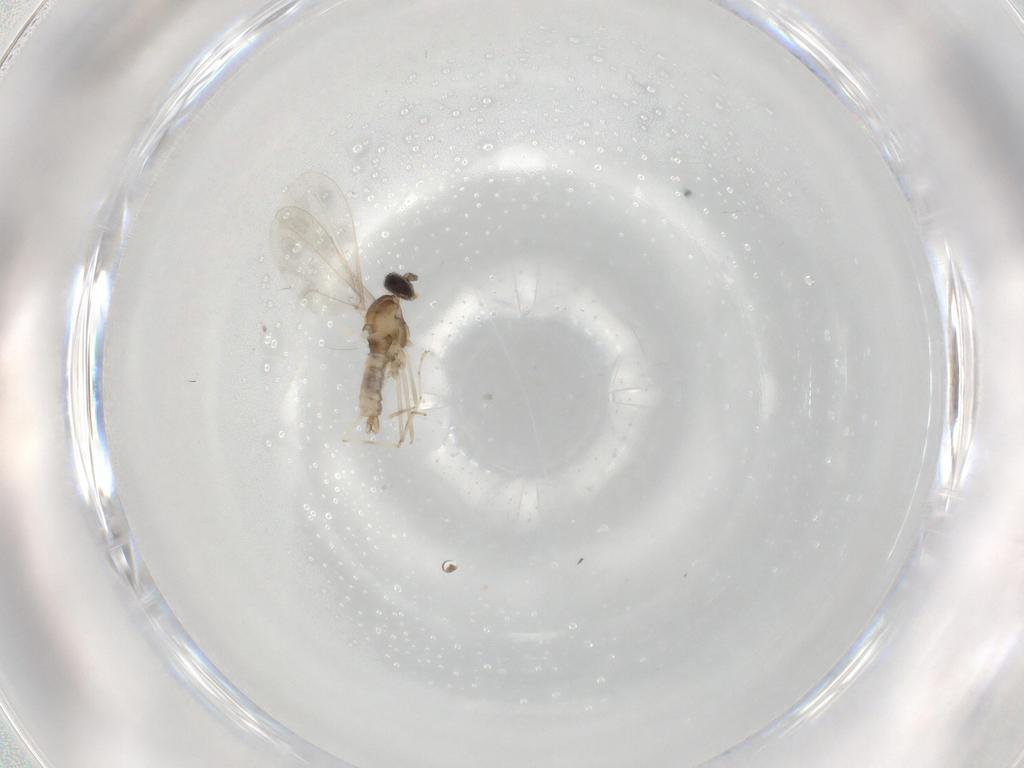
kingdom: Animalia
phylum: Arthropoda
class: Insecta
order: Diptera
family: Cecidomyiidae
